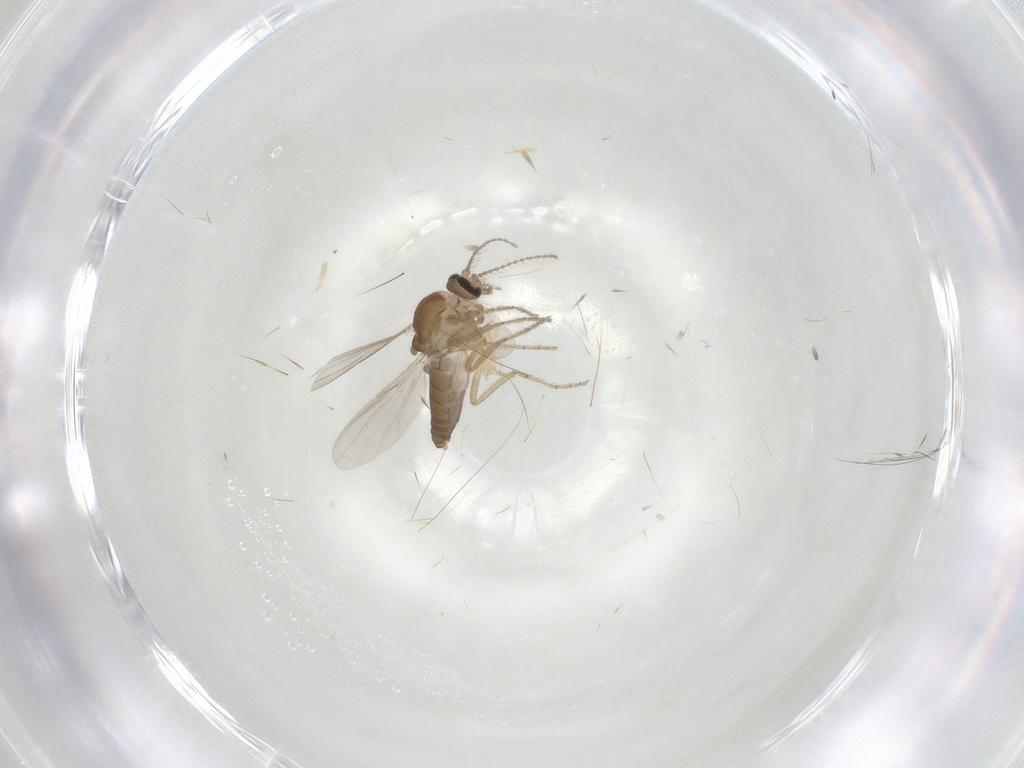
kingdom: Animalia
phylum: Arthropoda
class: Insecta
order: Diptera
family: Ceratopogonidae
